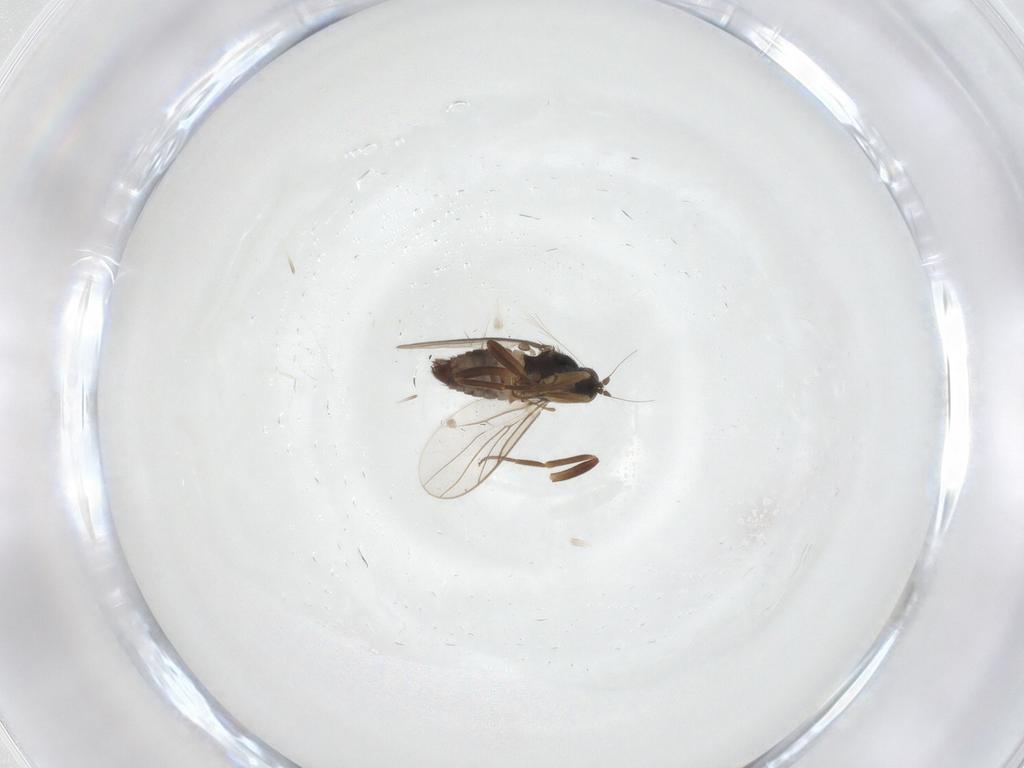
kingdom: Animalia
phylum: Arthropoda
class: Insecta
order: Diptera
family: Hybotidae
